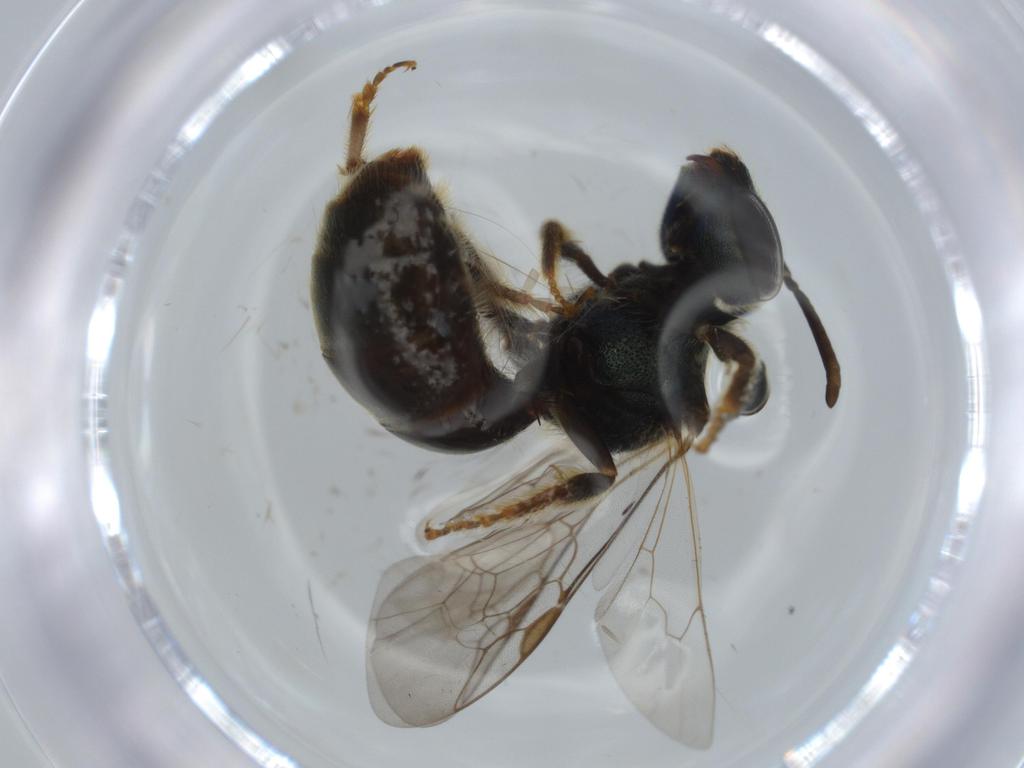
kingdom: Animalia
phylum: Arthropoda
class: Insecta
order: Hymenoptera
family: Halictidae
